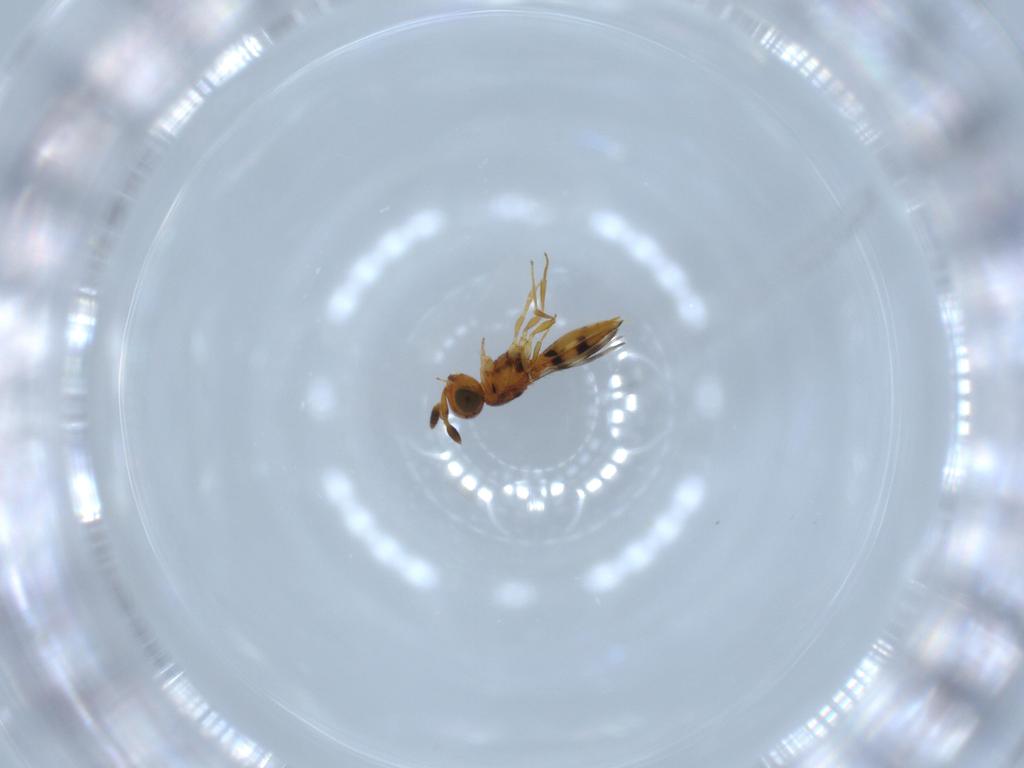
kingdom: Animalia
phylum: Arthropoda
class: Insecta
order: Hymenoptera
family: Scelionidae
